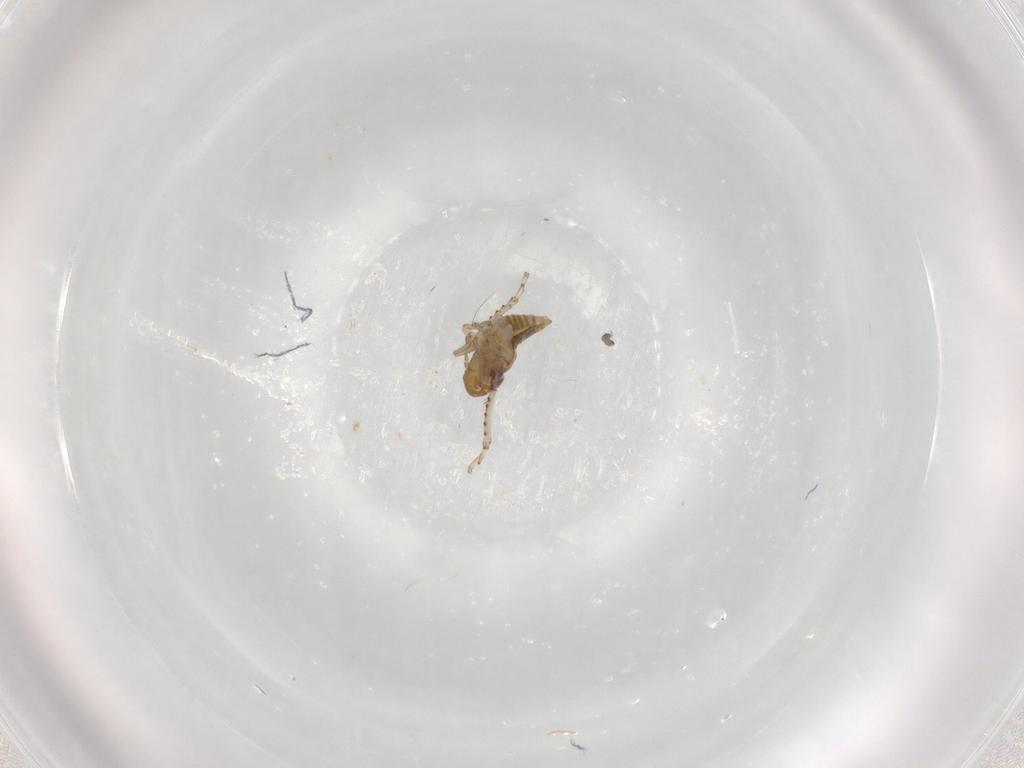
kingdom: Animalia
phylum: Arthropoda
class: Insecta
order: Hemiptera
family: Cicadellidae
